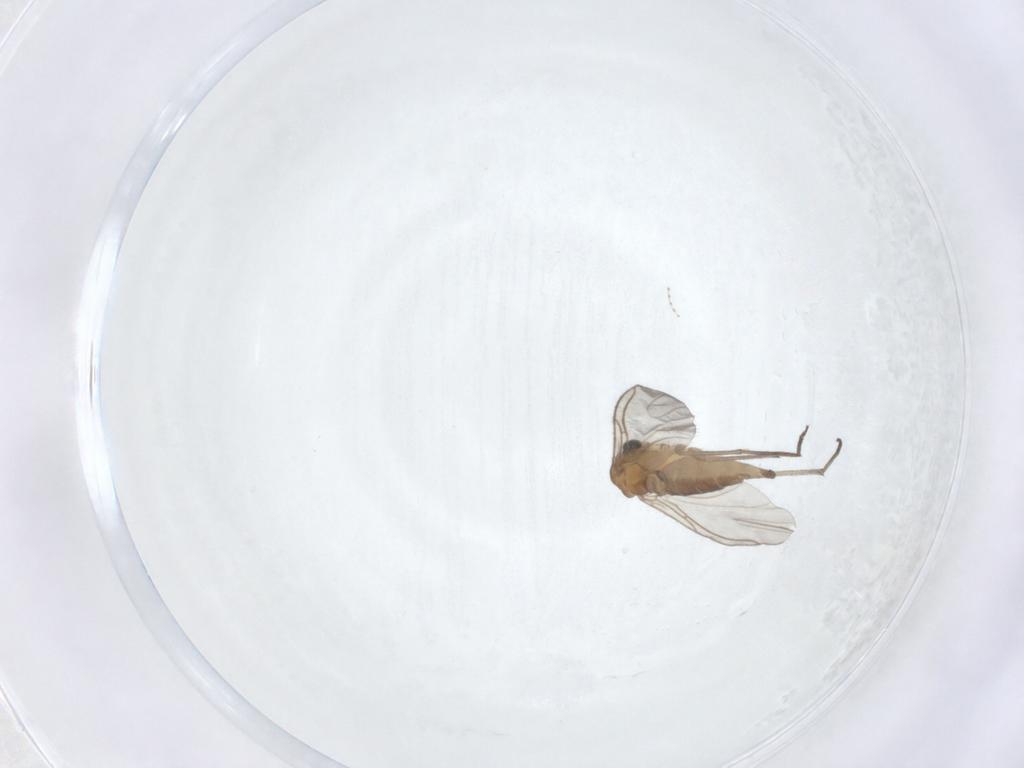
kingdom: Animalia
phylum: Arthropoda
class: Insecta
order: Diptera
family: Sciaridae
